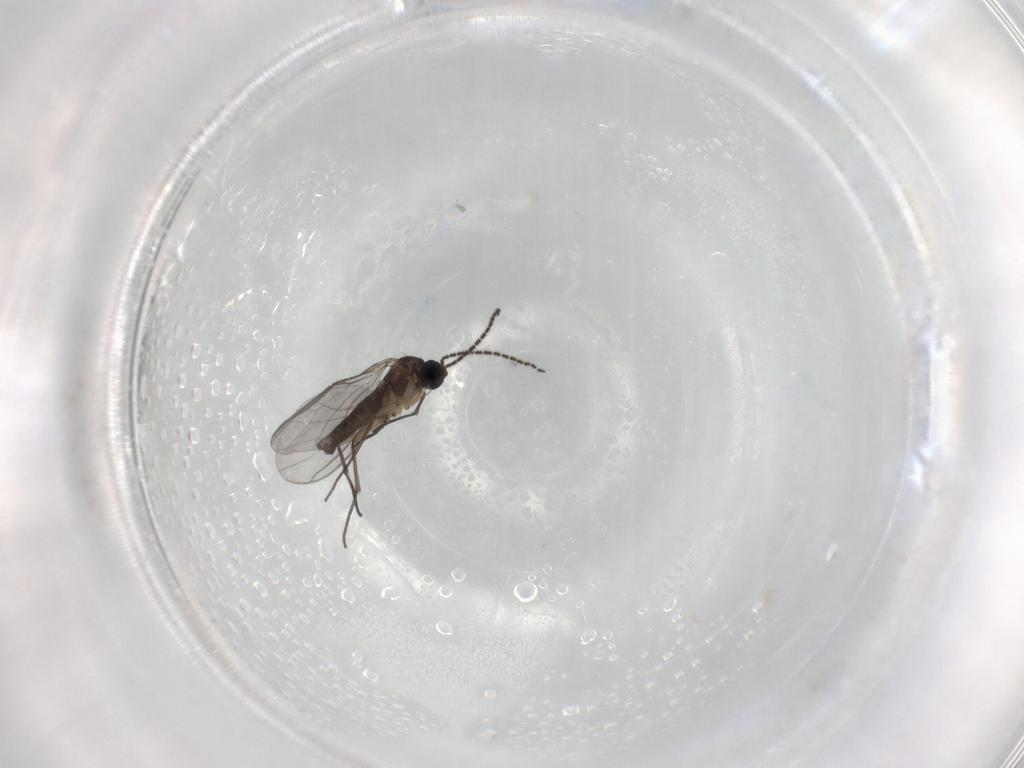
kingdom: Animalia
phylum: Arthropoda
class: Insecta
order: Diptera
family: Sciaridae
